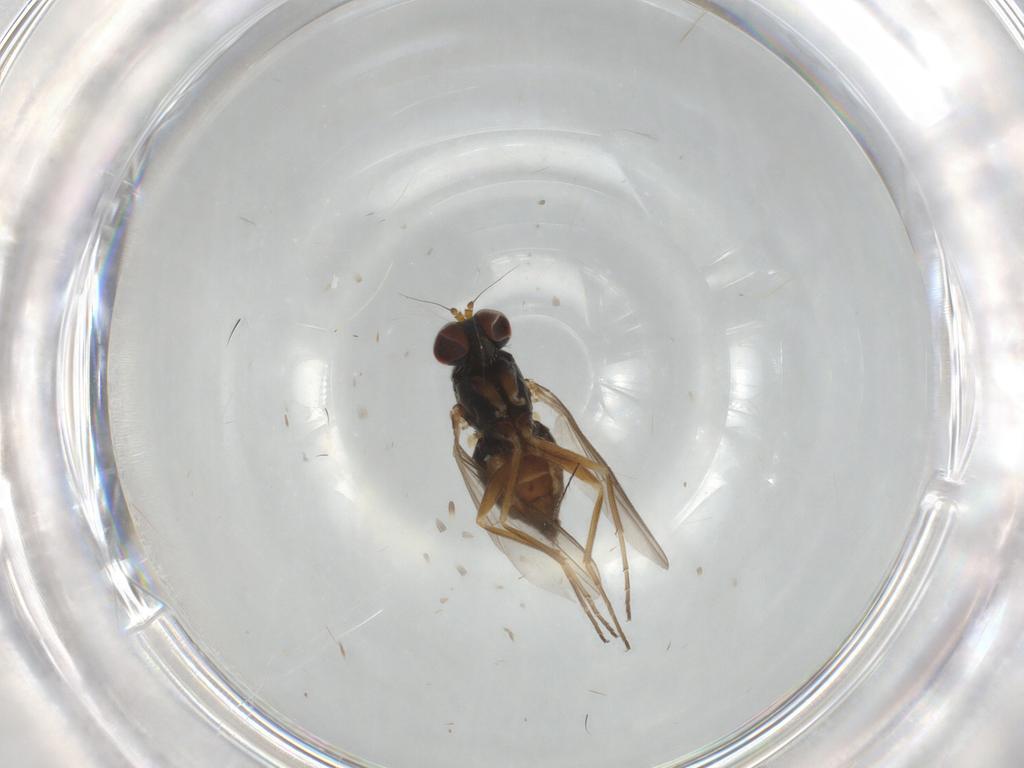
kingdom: Animalia
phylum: Arthropoda
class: Insecta
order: Diptera
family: Dolichopodidae
